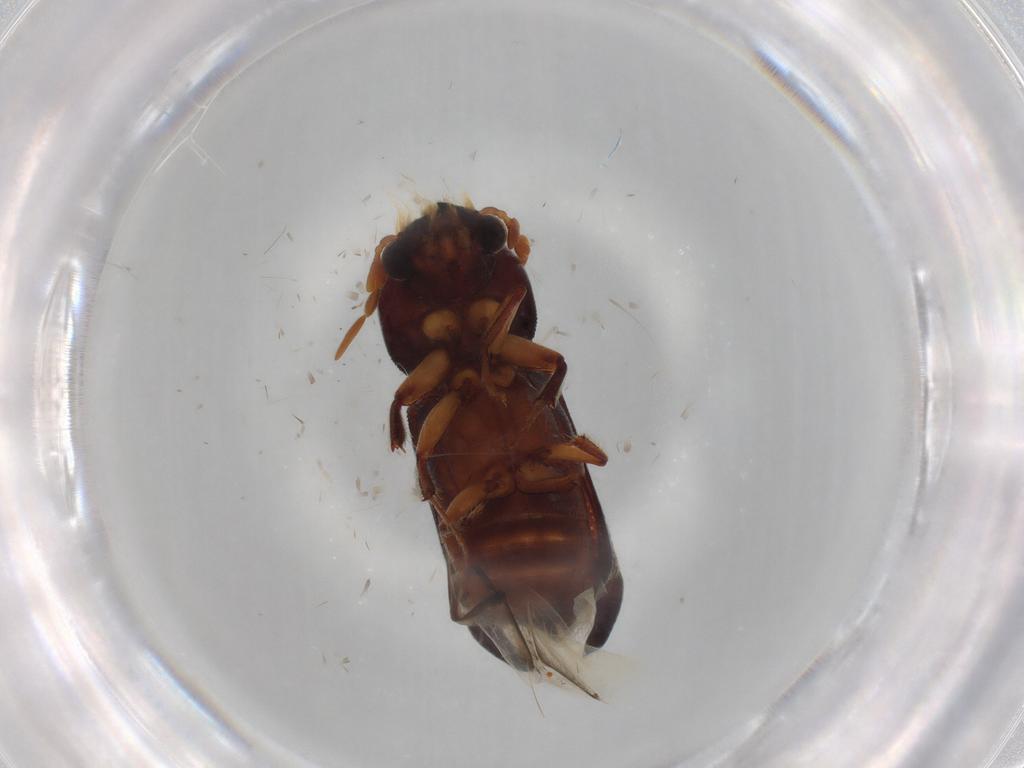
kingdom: Animalia
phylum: Arthropoda
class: Insecta
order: Coleoptera
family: Bostrichidae
